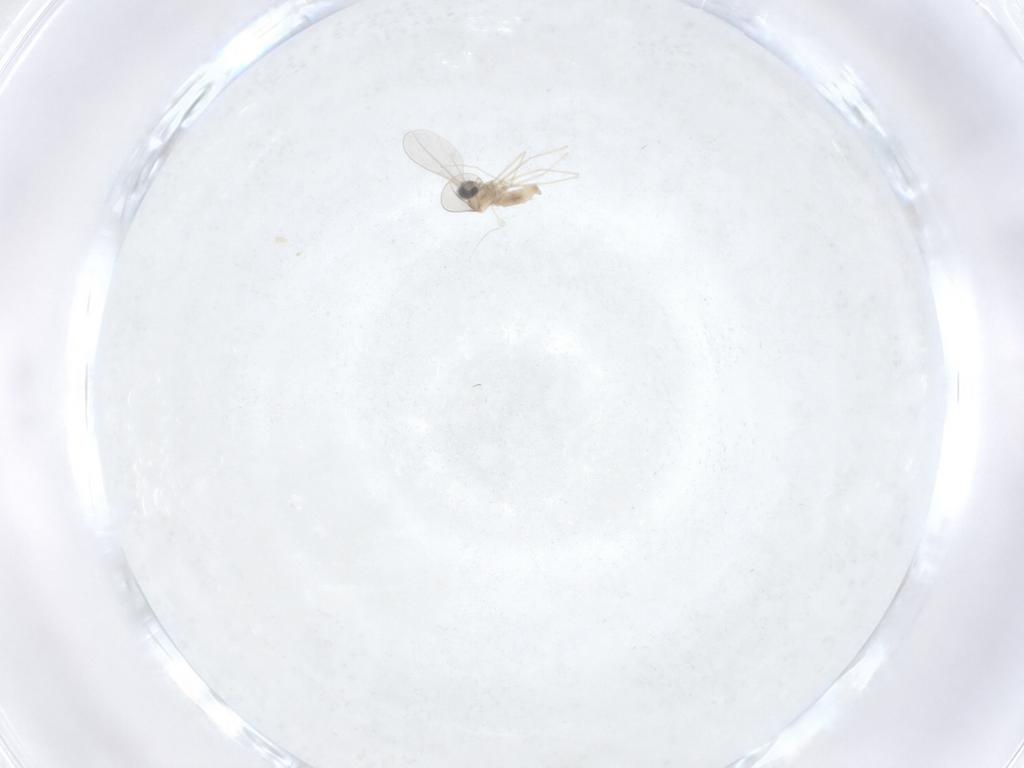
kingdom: Animalia
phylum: Arthropoda
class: Insecta
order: Diptera
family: Cecidomyiidae
